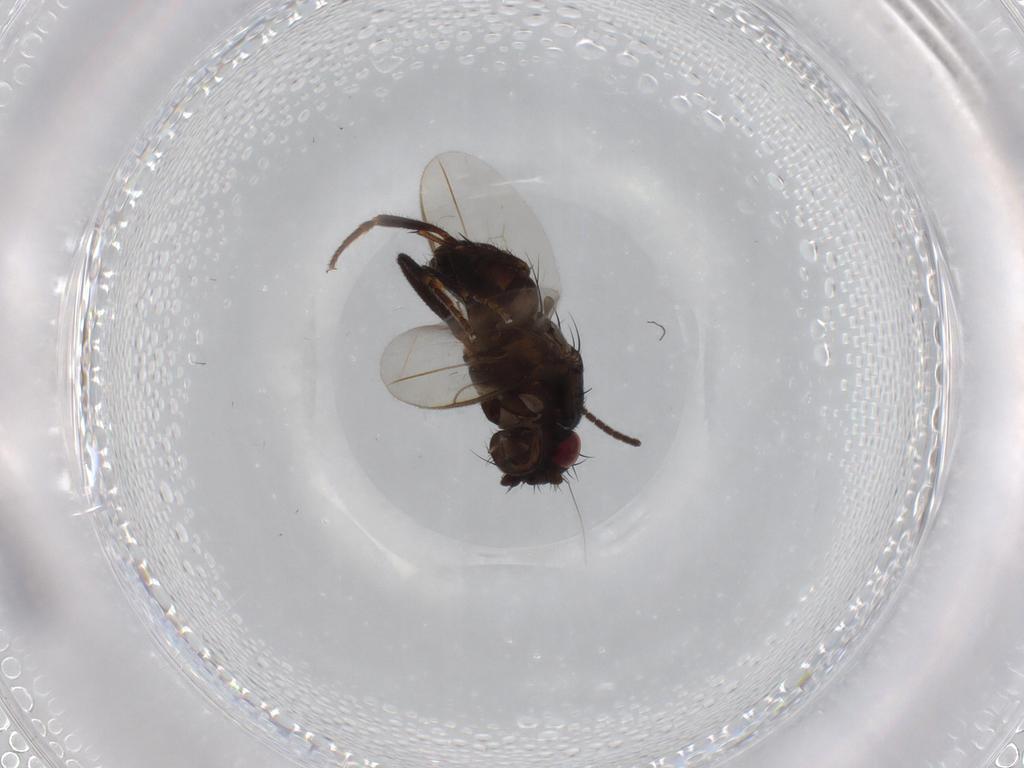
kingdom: Animalia
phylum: Arthropoda
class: Insecta
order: Diptera
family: Sciaridae
